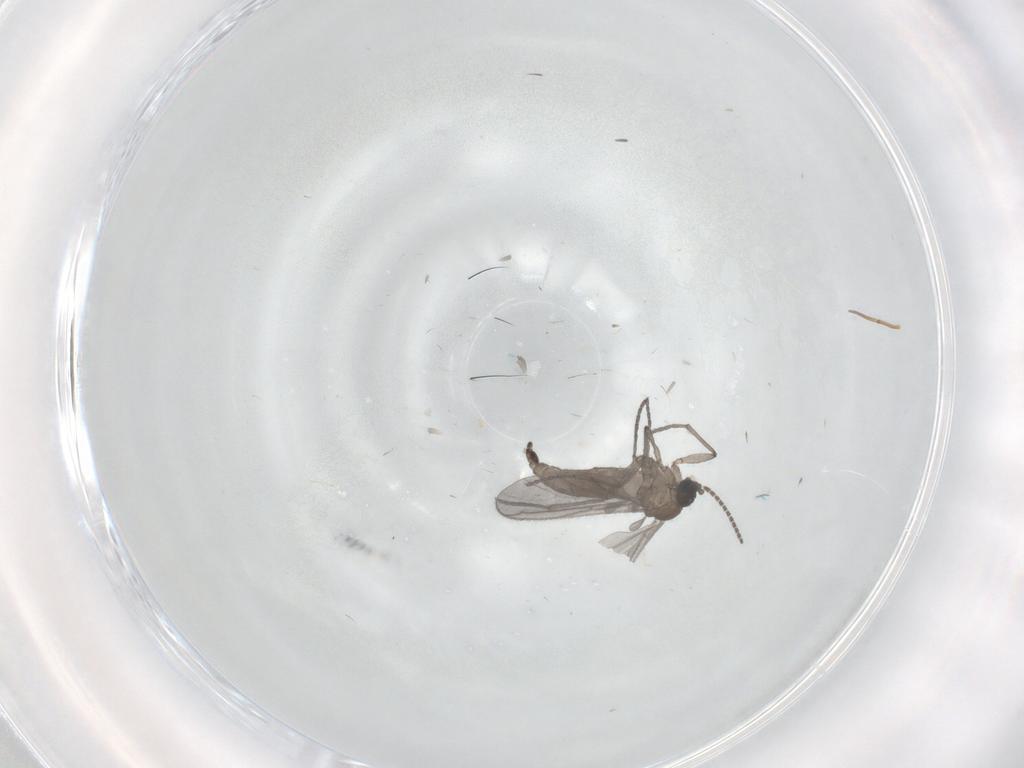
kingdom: Animalia
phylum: Arthropoda
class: Insecta
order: Diptera
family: Sciaridae
